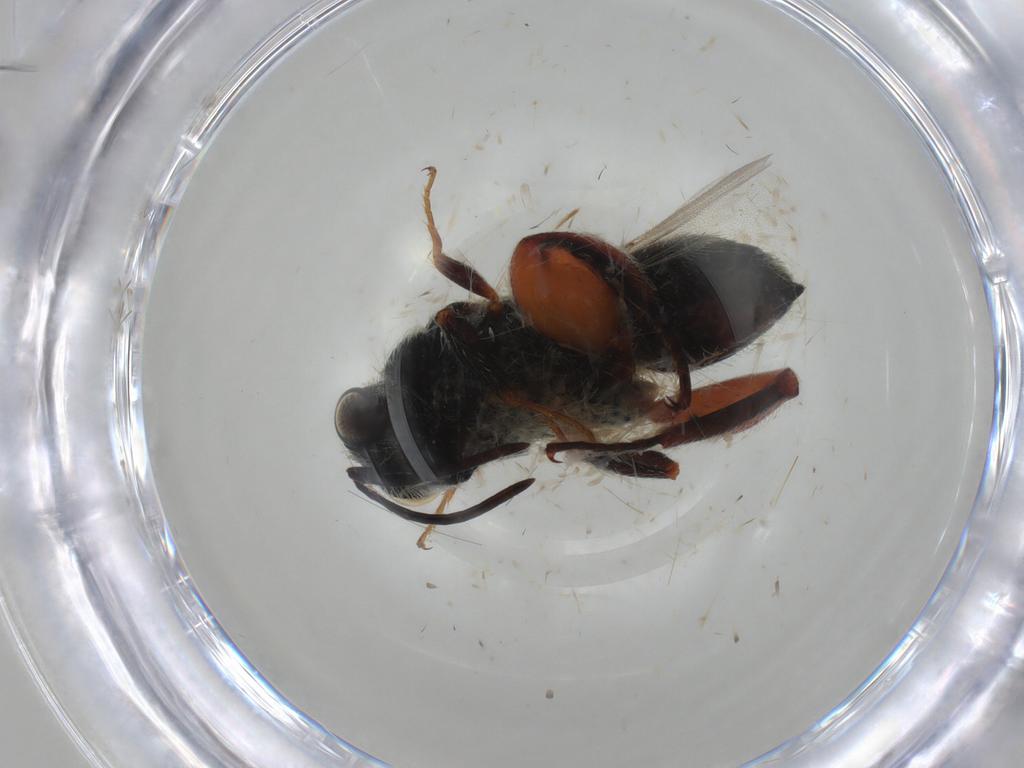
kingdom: Animalia
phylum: Arthropoda
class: Insecta
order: Hymenoptera
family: Chalcididae
